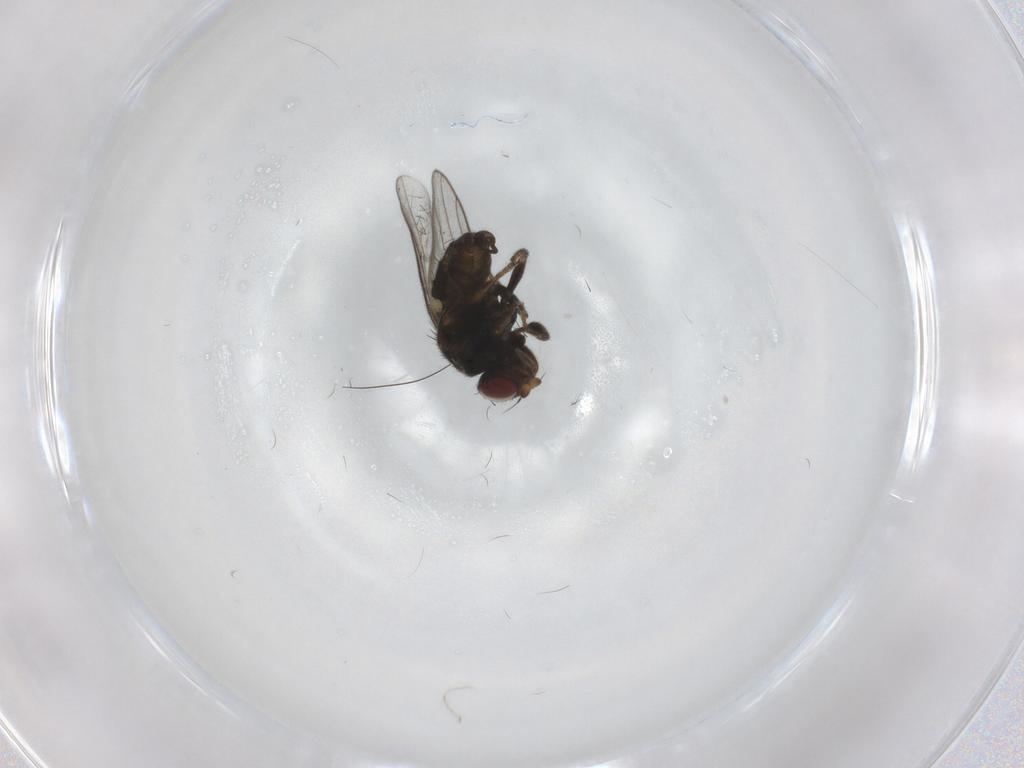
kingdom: Animalia
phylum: Arthropoda
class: Insecta
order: Diptera
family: Chloropidae
